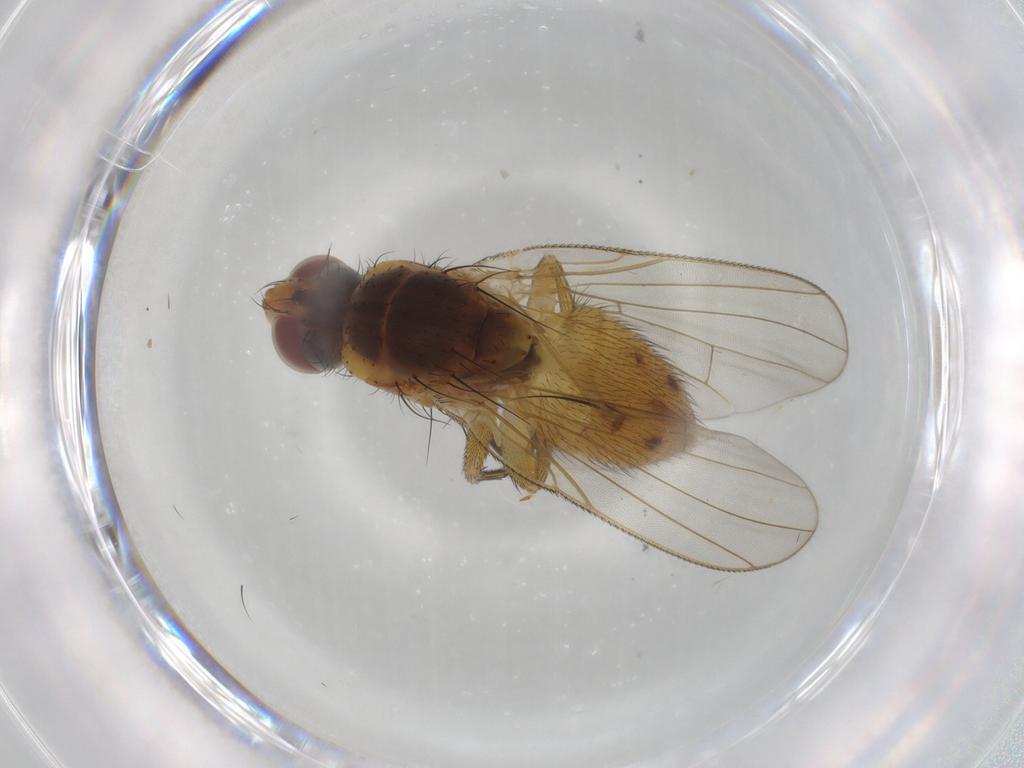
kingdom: Animalia
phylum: Arthropoda
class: Insecta
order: Diptera
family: Muscidae
